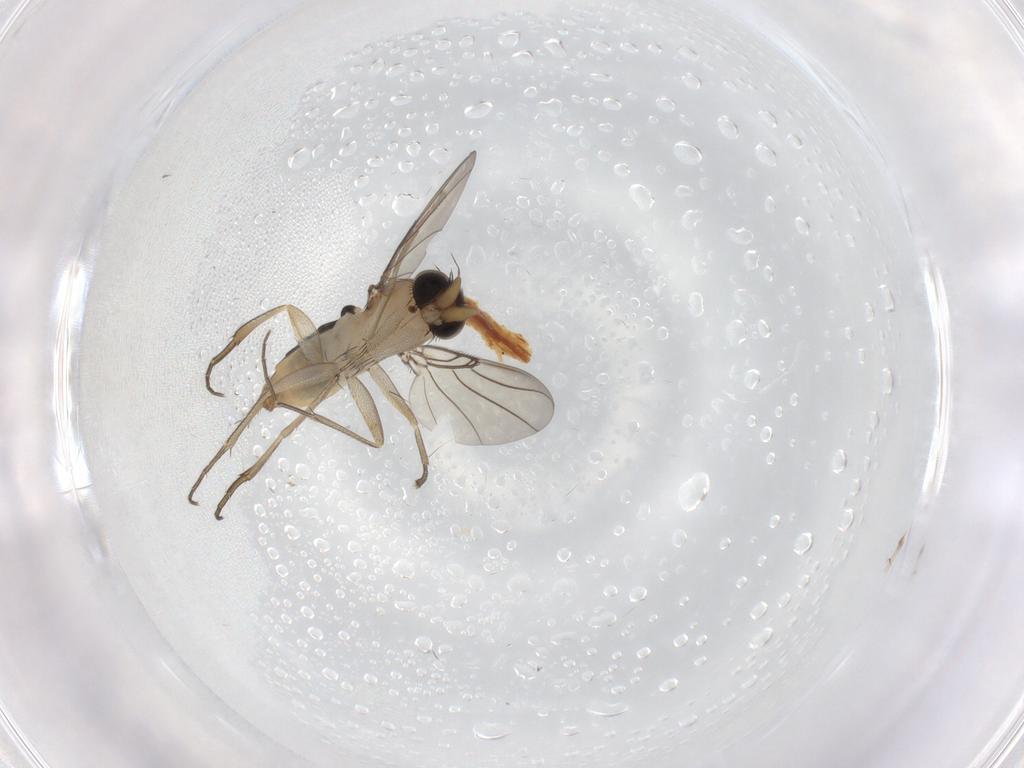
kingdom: Animalia
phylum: Arthropoda
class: Insecta
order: Diptera
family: Phoridae
